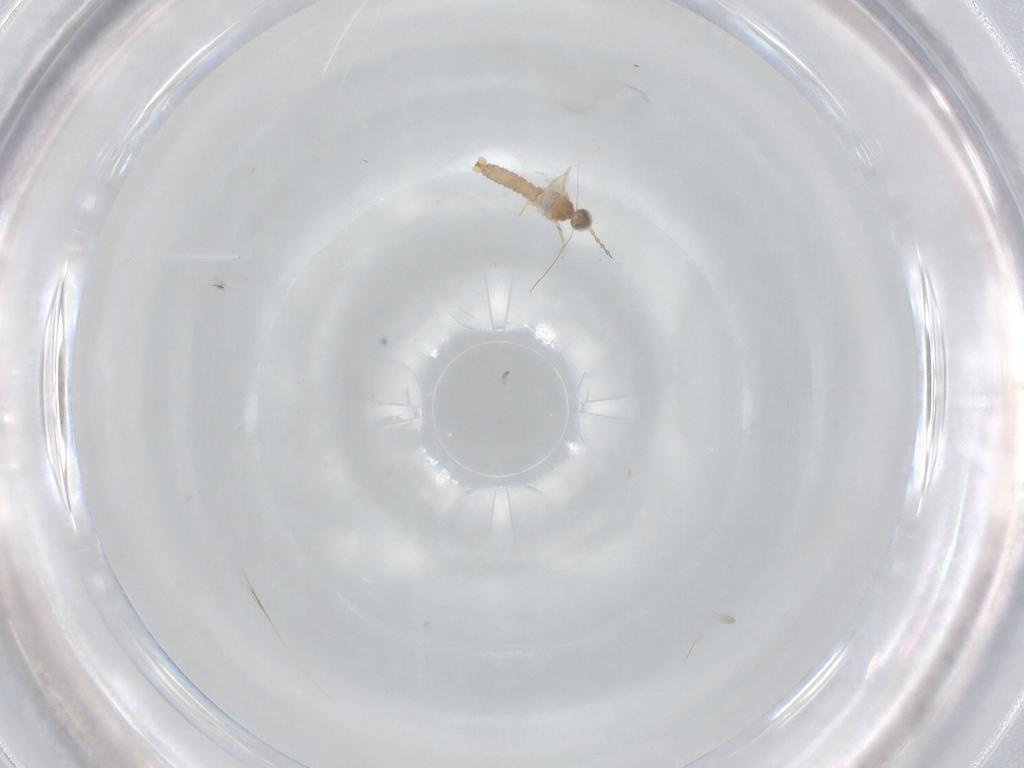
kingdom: Animalia
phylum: Arthropoda
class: Insecta
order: Diptera
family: Cecidomyiidae
